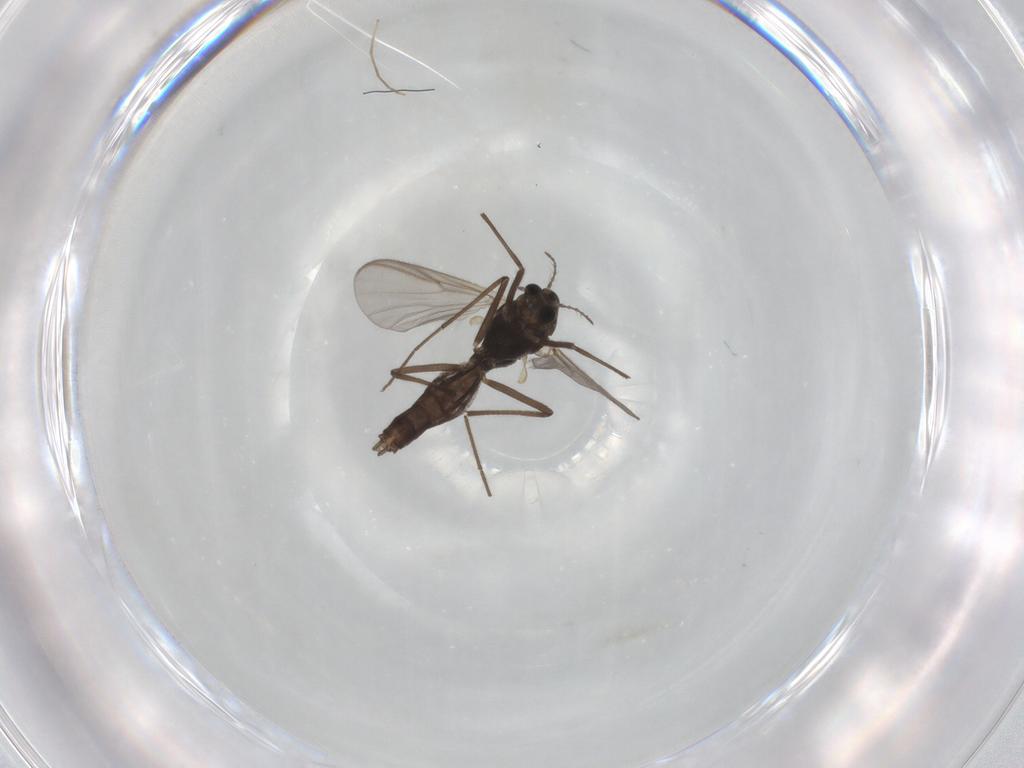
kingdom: Animalia
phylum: Arthropoda
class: Insecta
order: Diptera
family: Chironomidae
